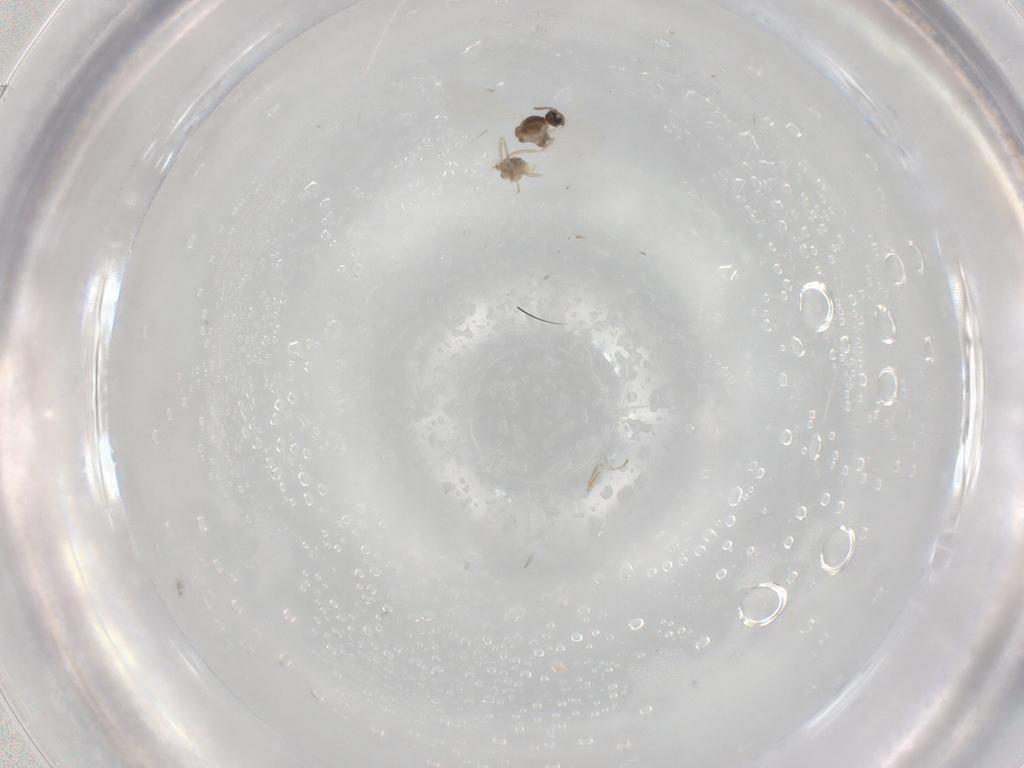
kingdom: Animalia
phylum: Arthropoda
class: Insecta
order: Diptera
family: Cecidomyiidae
